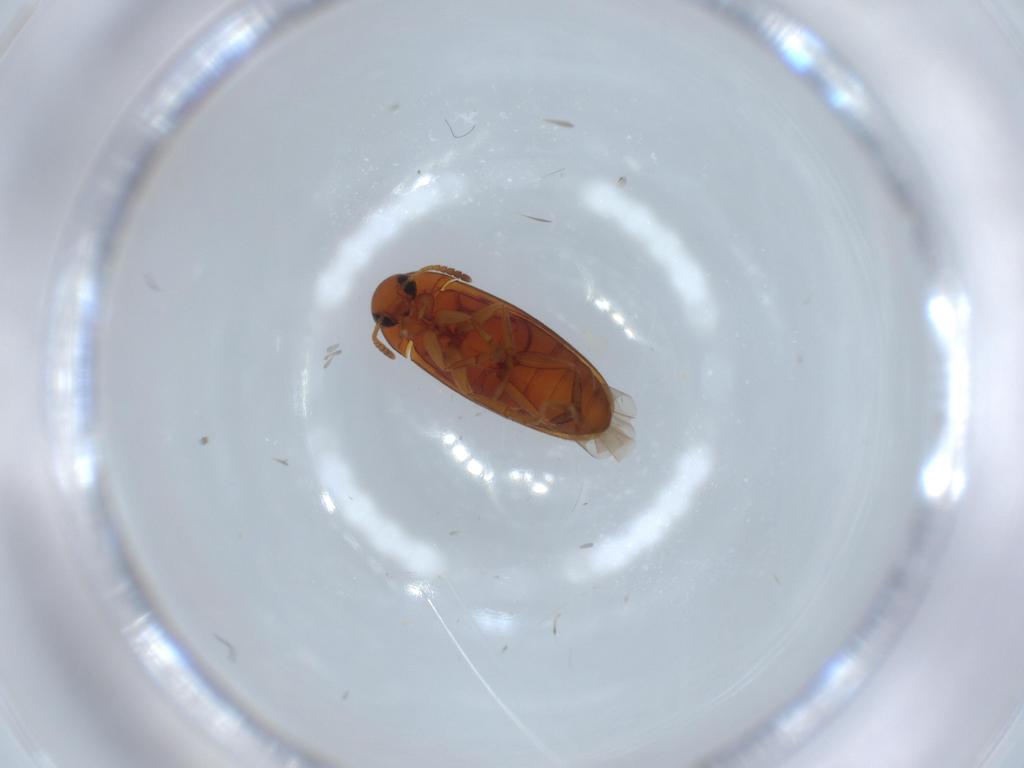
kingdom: Animalia
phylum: Arthropoda
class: Insecta
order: Coleoptera
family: Scraptiidae
